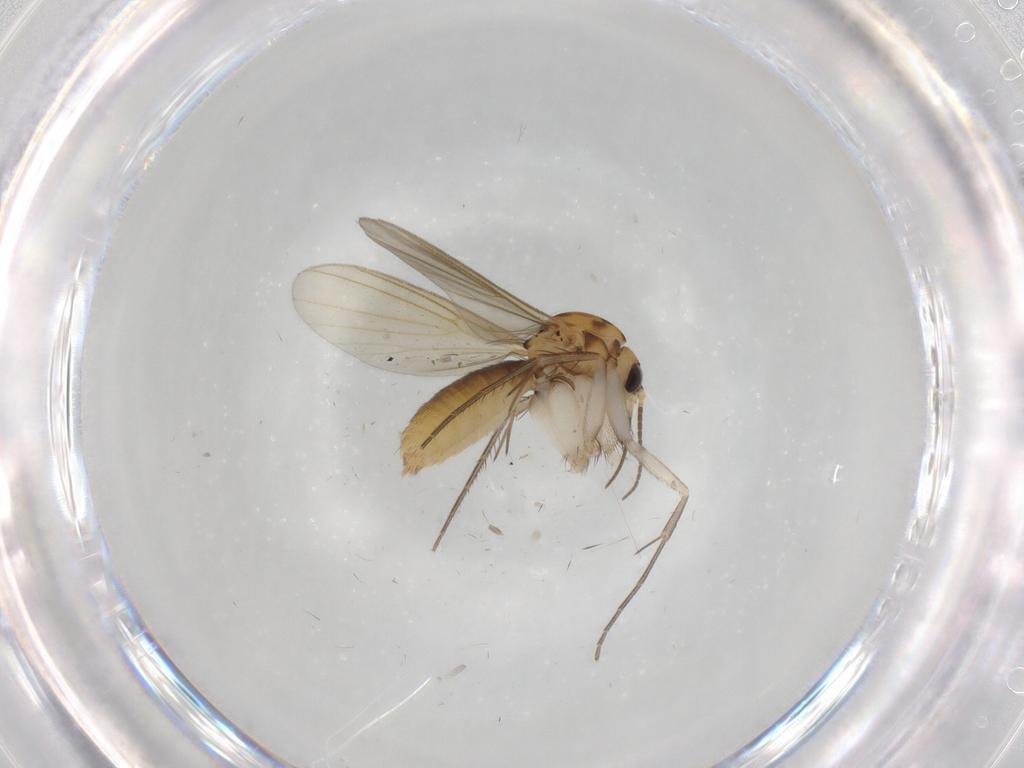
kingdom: Animalia
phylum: Arthropoda
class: Insecta
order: Diptera
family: Mycetophilidae
